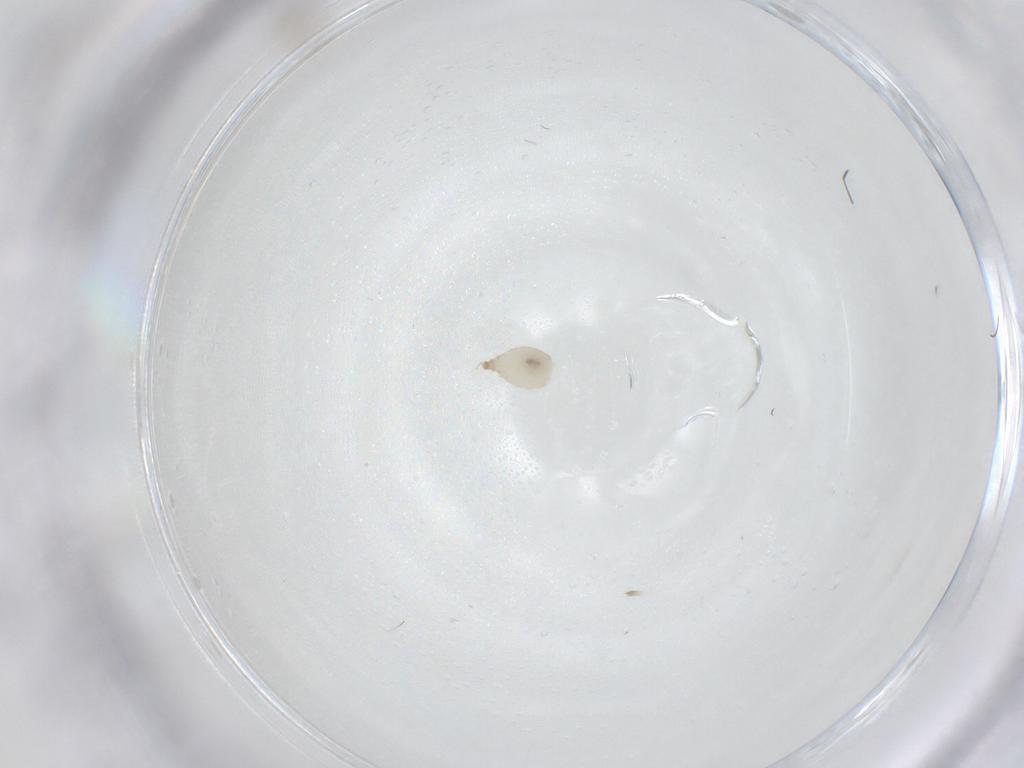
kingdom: Animalia
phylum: Arthropoda
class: Insecta
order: Diptera
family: Cecidomyiidae
